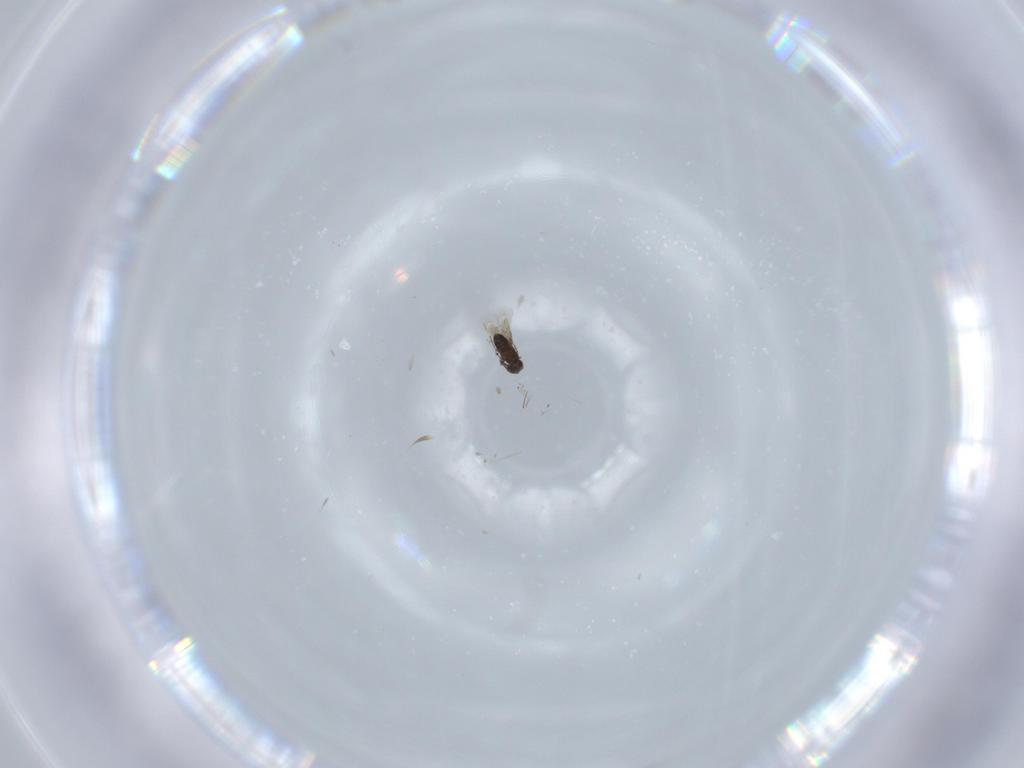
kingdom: Animalia
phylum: Arthropoda
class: Insecta
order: Hymenoptera
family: Signiphoridae
